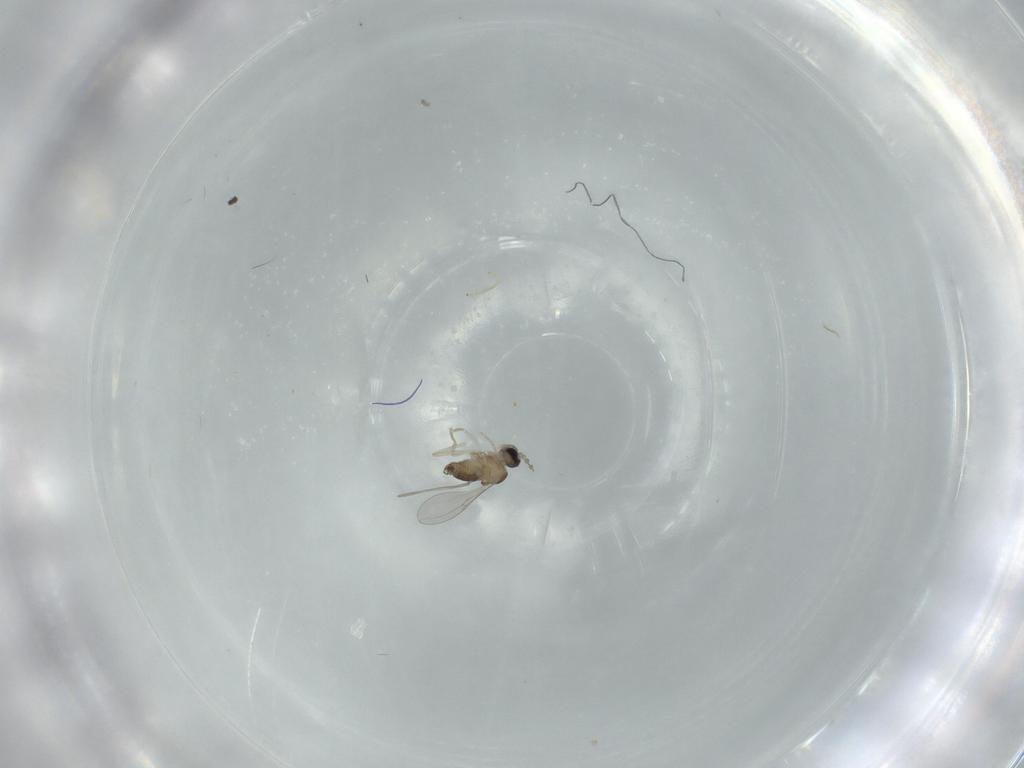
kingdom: Animalia
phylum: Arthropoda
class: Insecta
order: Diptera
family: Cecidomyiidae
